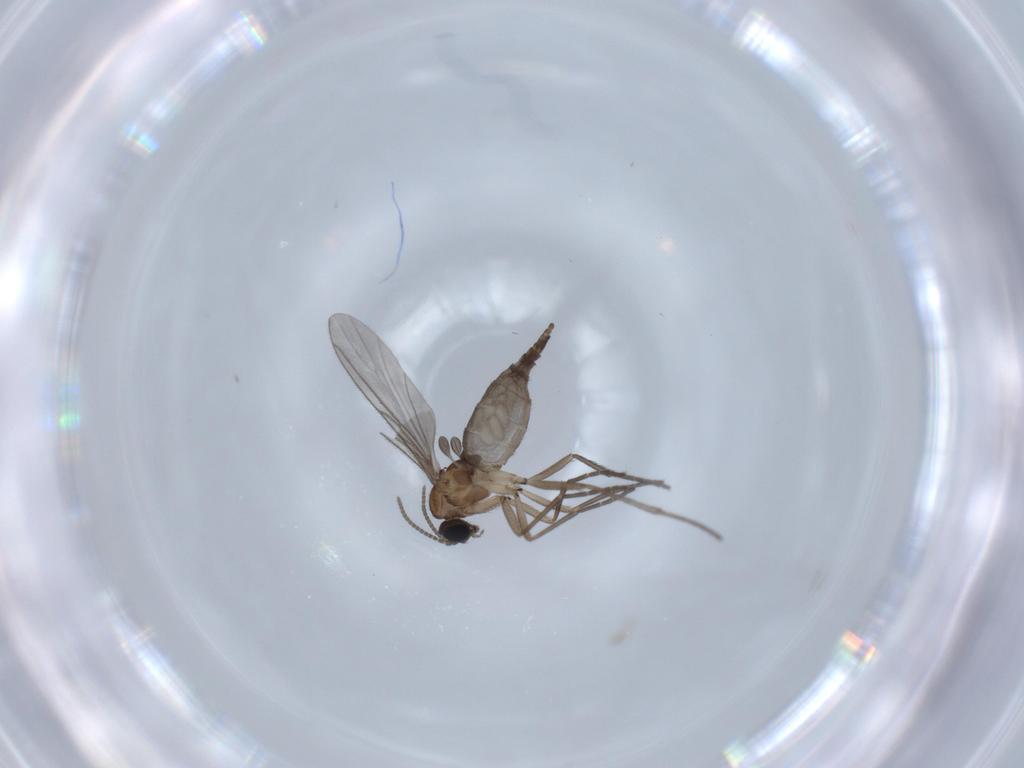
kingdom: Animalia
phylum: Arthropoda
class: Insecta
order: Diptera
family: Sciaridae
